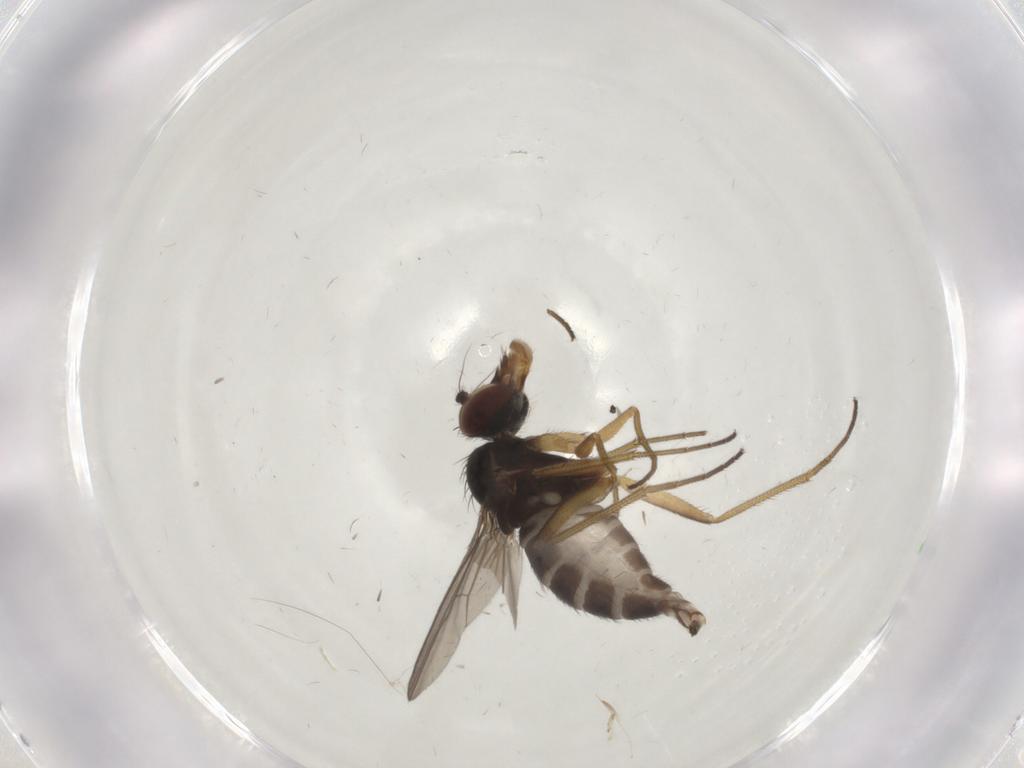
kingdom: Animalia
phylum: Arthropoda
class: Insecta
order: Diptera
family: Dolichopodidae
